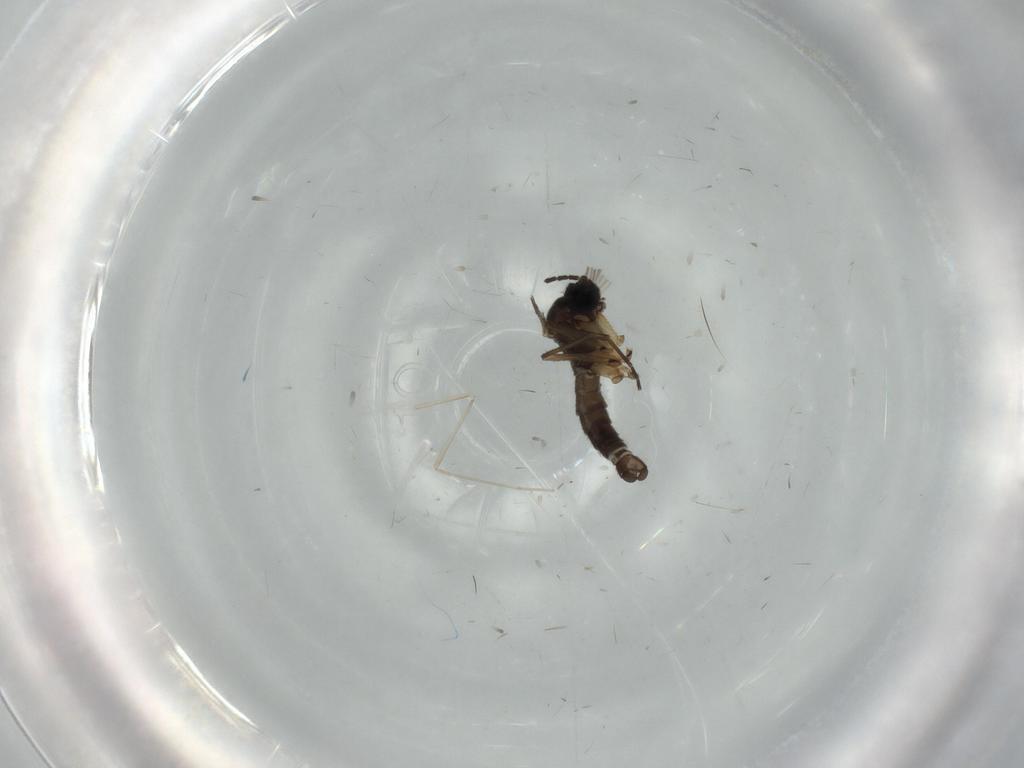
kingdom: Animalia
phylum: Arthropoda
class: Insecta
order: Diptera
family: Sciaridae
